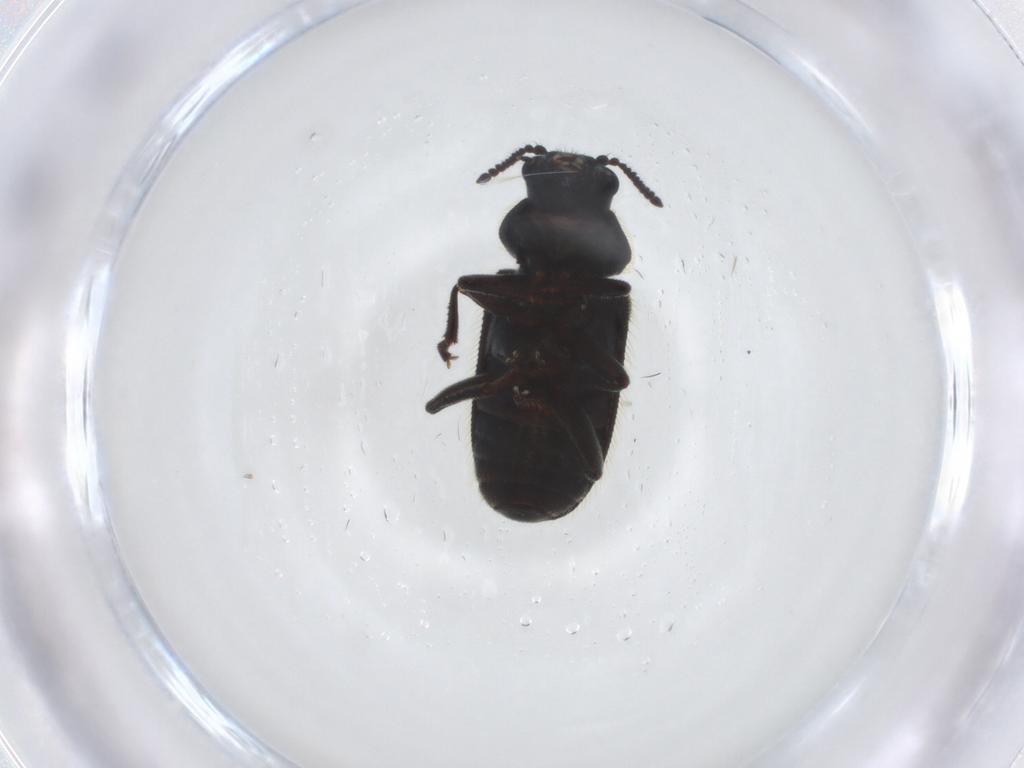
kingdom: Animalia
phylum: Arthropoda
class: Insecta
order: Coleoptera
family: Dasytidae
